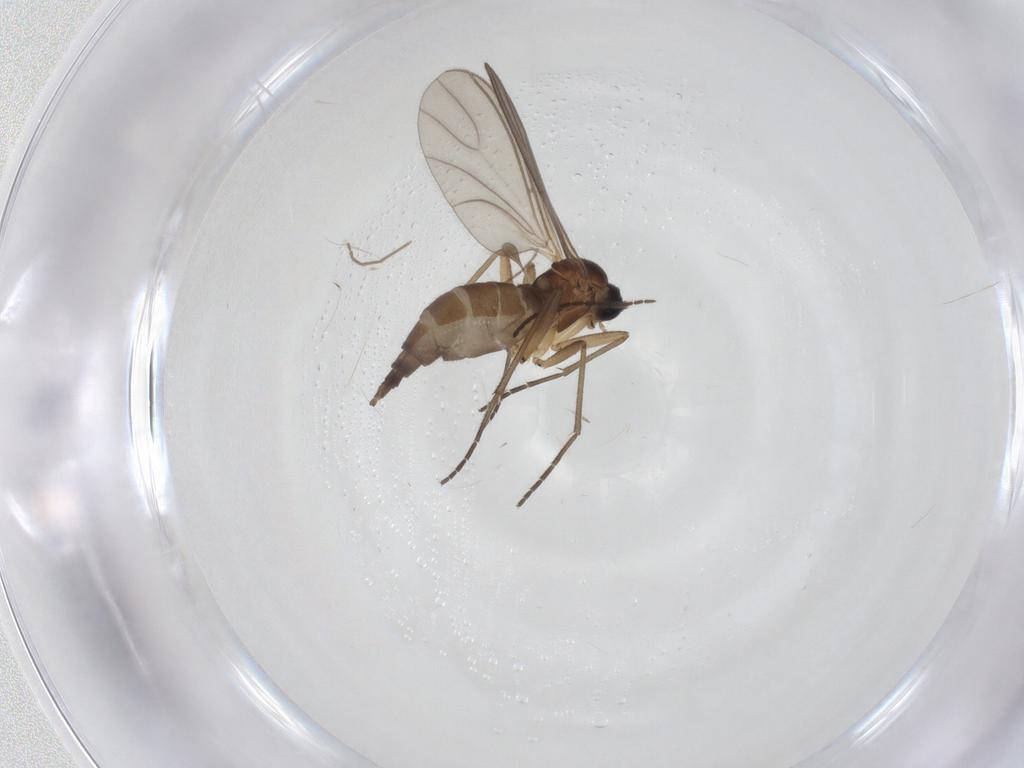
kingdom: Animalia
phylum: Arthropoda
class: Insecta
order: Diptera
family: Sciaridae
